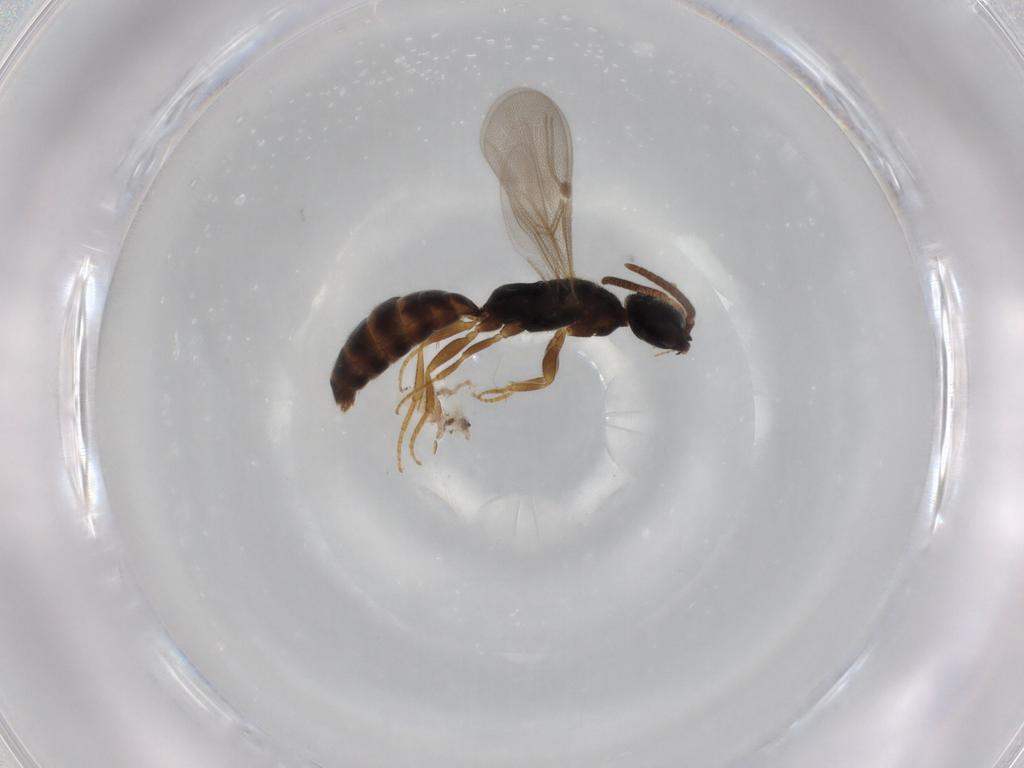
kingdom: Animalia
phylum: Arthropoda
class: Insecta
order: Hymenoptera
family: Bethylidae
